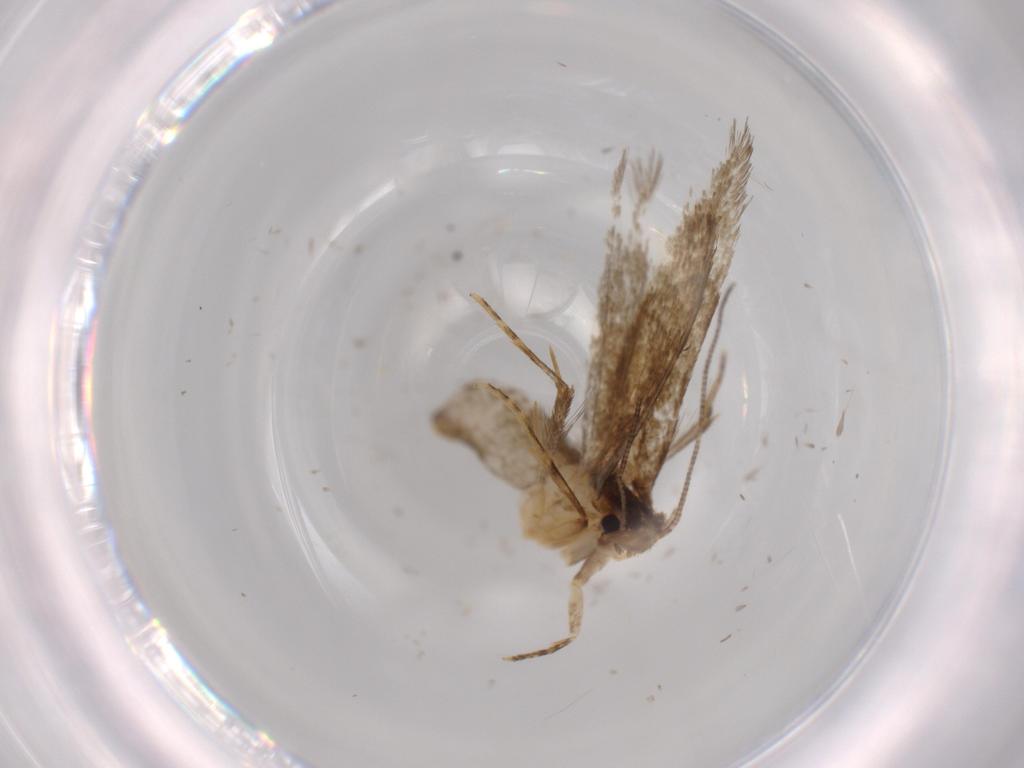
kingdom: Animalia
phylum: Arthropoda
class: Insecta
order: Lepidoptera
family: Tineidae
